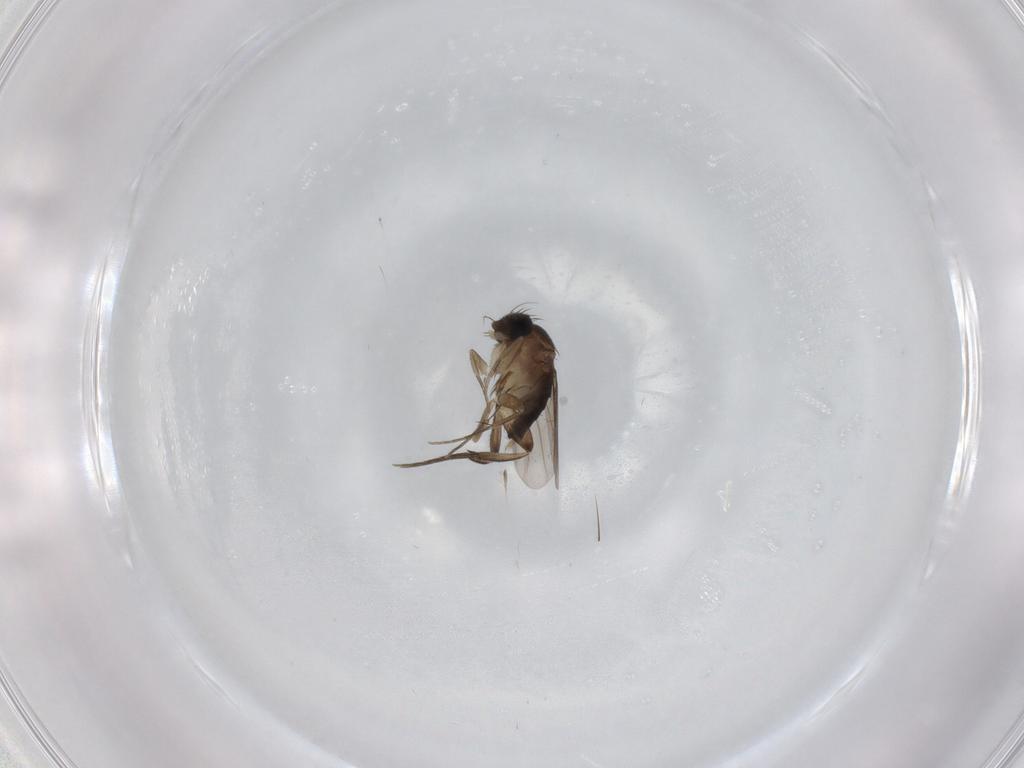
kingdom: Animalia
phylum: Arthropoda
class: Insecta
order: Diptera
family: Phoridae
